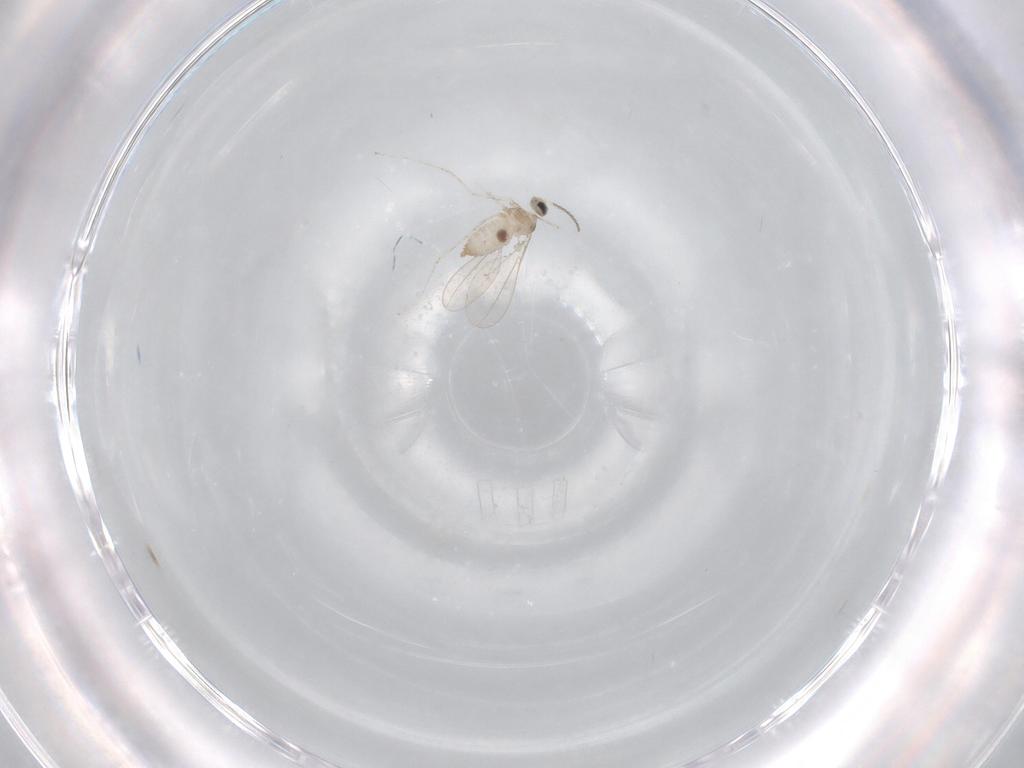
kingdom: Animalia
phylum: Arthropoda
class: Insecta
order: Diptera
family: Cecidomyiidae
